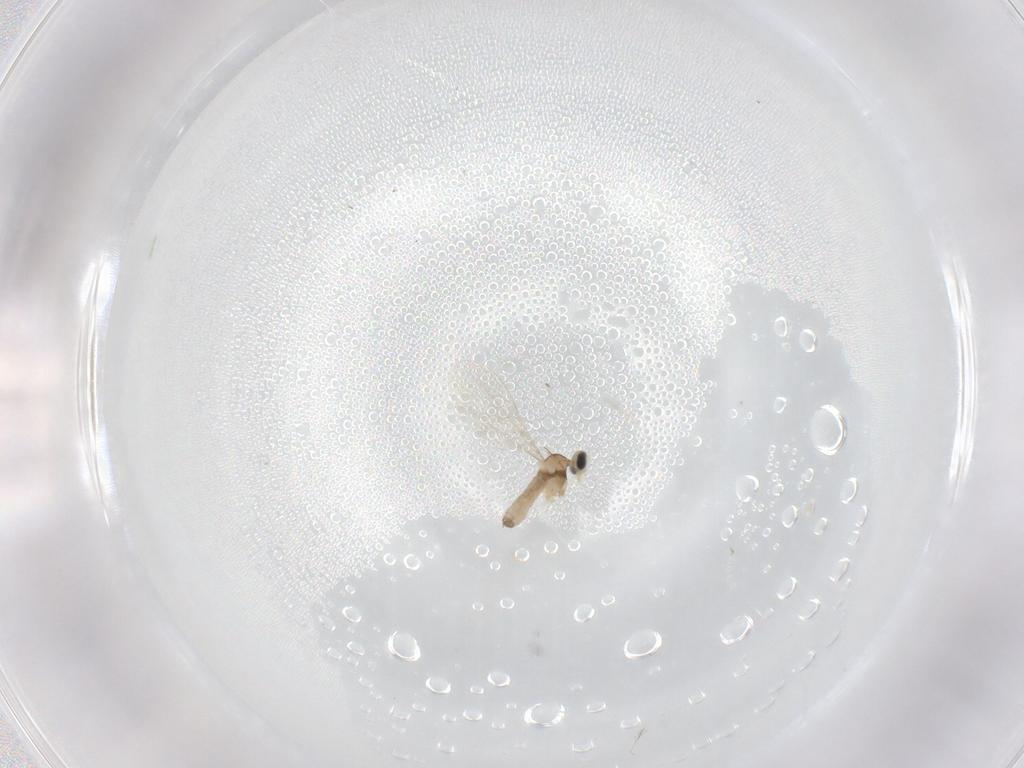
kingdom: Animalia
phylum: Arthropoda
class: Insecta
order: Diptera
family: Cecidomyiidae
